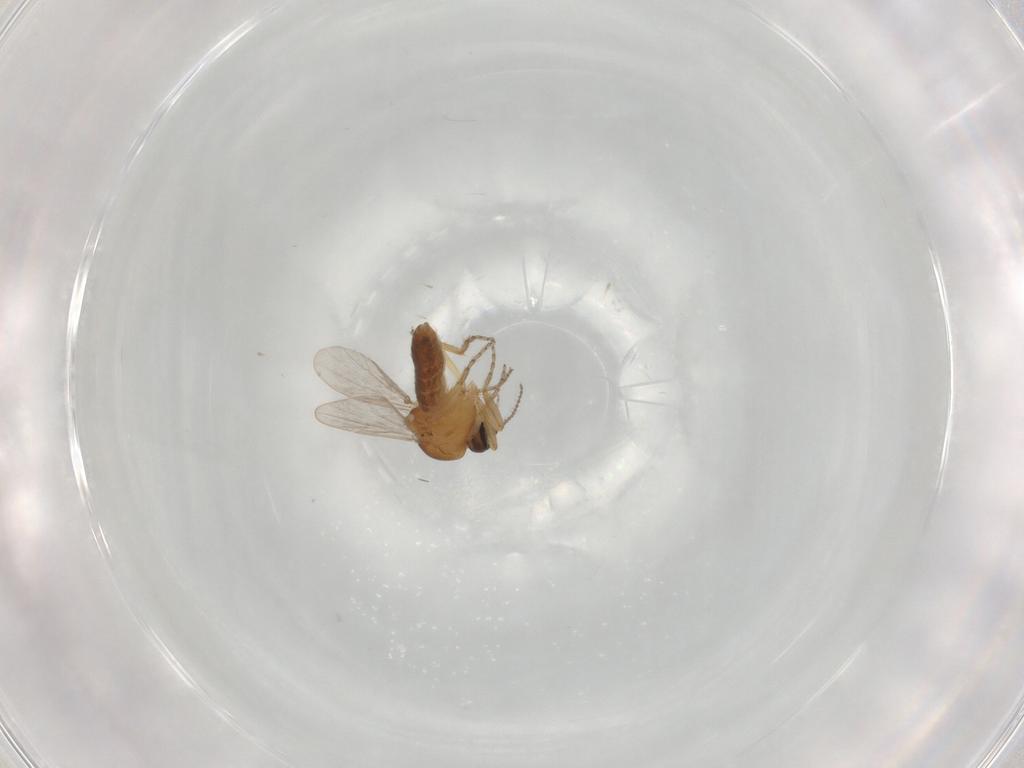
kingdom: Animalia
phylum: Arthropoda
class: Insecta
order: Diptera
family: Ceratopogonidae
